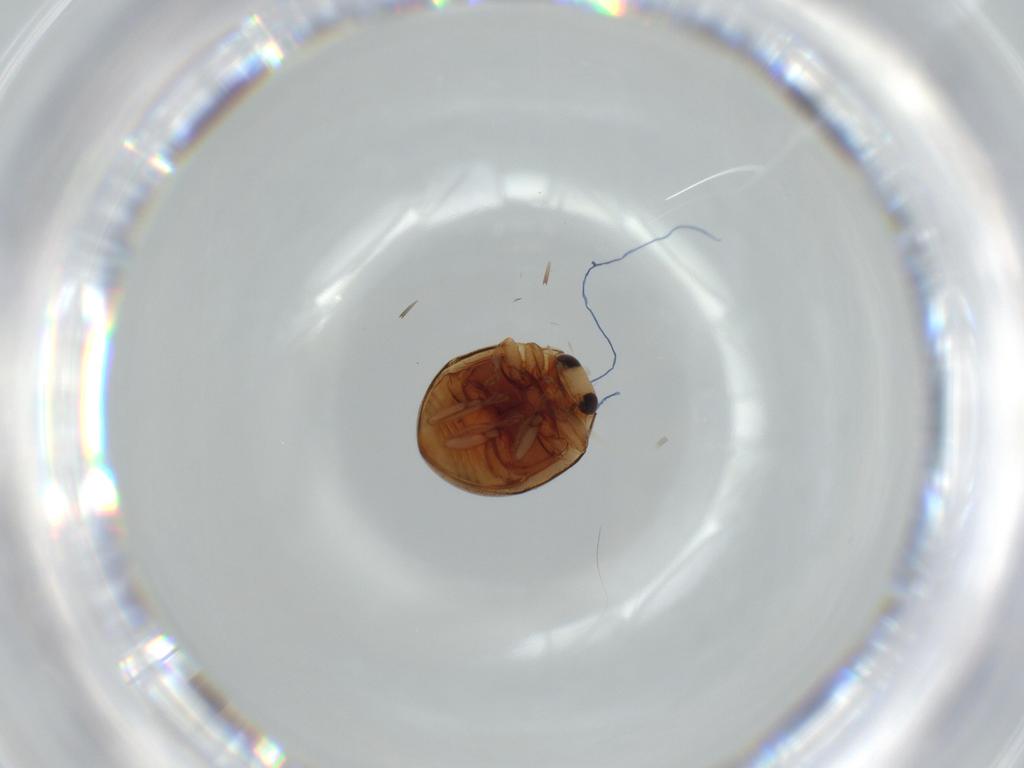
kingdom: Animalia
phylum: Arthropoda
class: Insecta
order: Coleoptera
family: Coccinellidae
